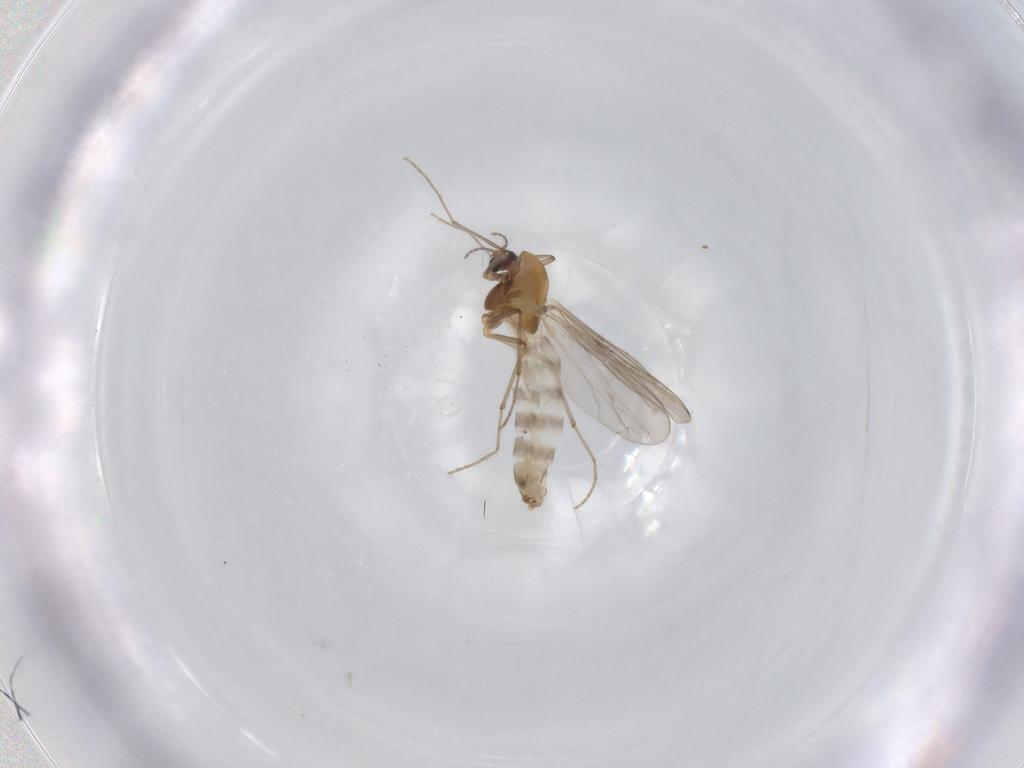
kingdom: Animalia
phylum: Arthropoda
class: Insecta
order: Diptera
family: Chironomidae
